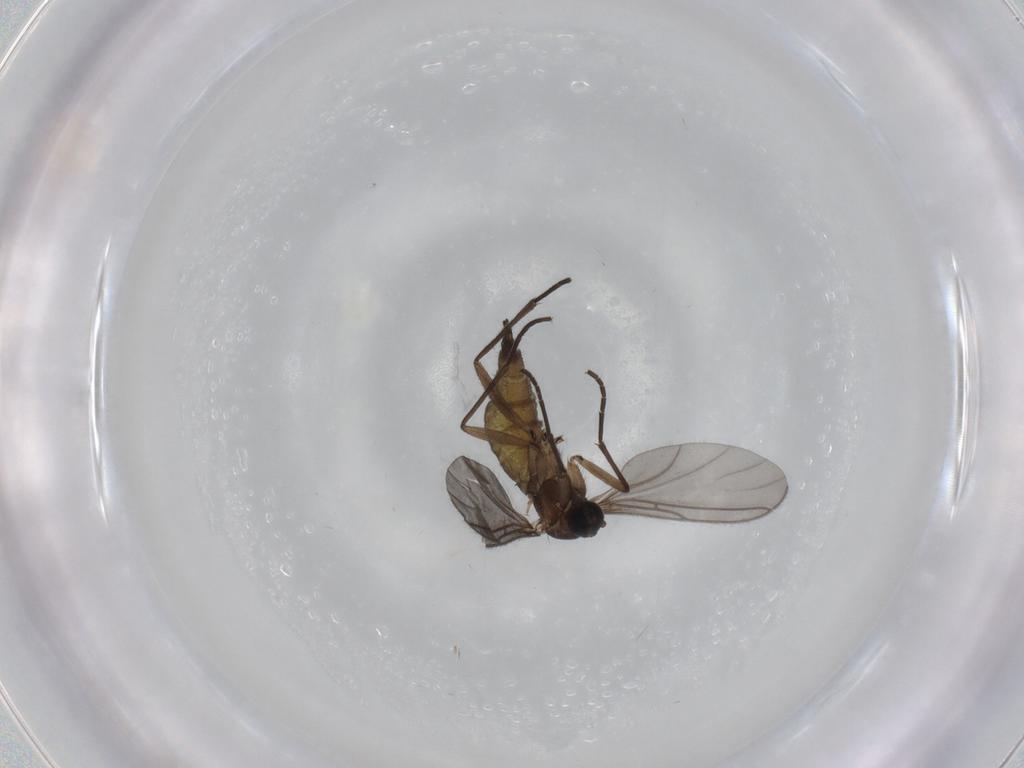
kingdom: Animalia
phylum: Arthropoda
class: Insecta
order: Diptera
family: Sciaridae
